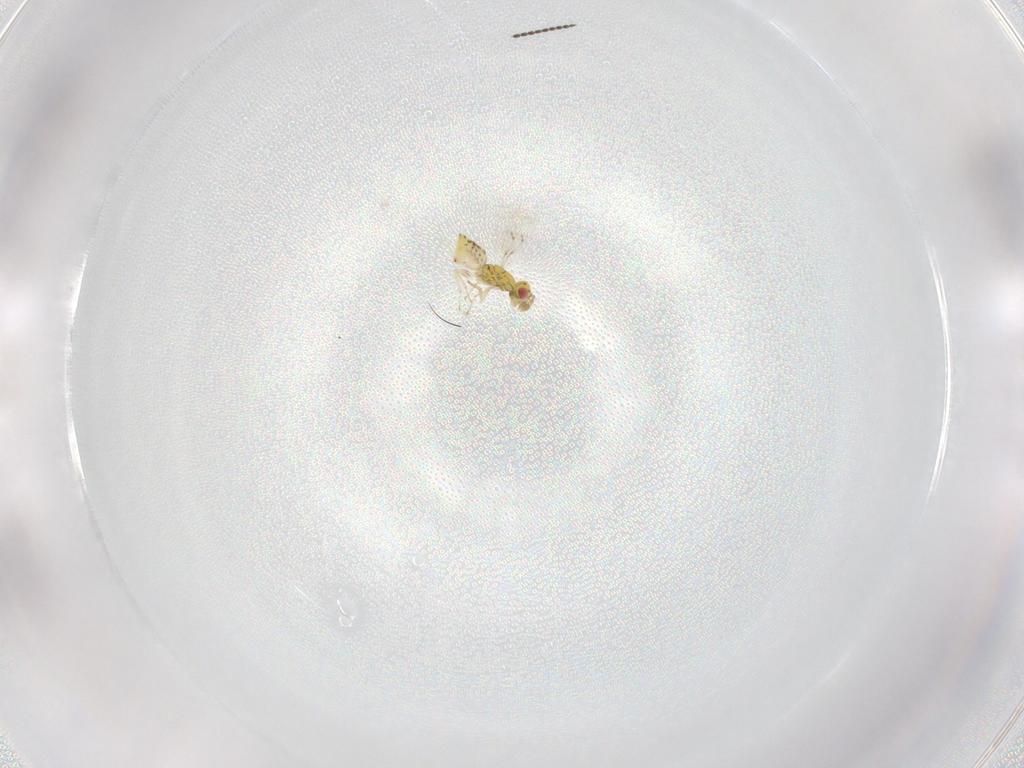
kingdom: Animalia
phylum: Arthropoda
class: Insecta
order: Hymenoptera
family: Eulophidae
